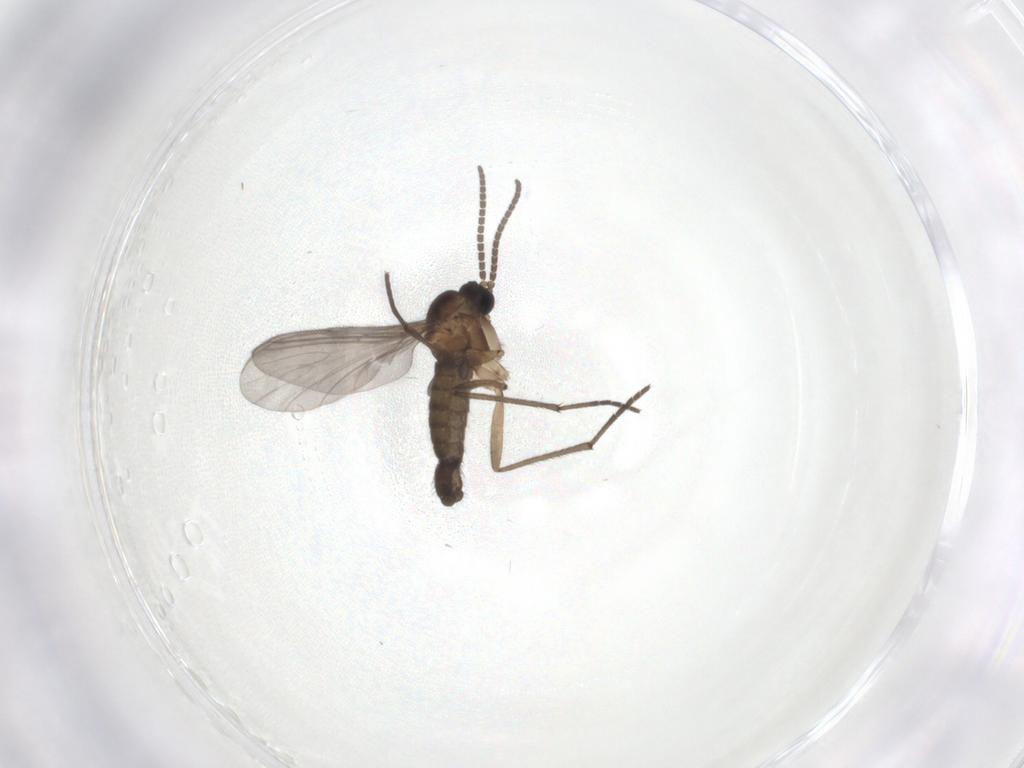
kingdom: Animalia
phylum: Arthropoda
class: Insecta
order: Diptera
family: Sciaridae
